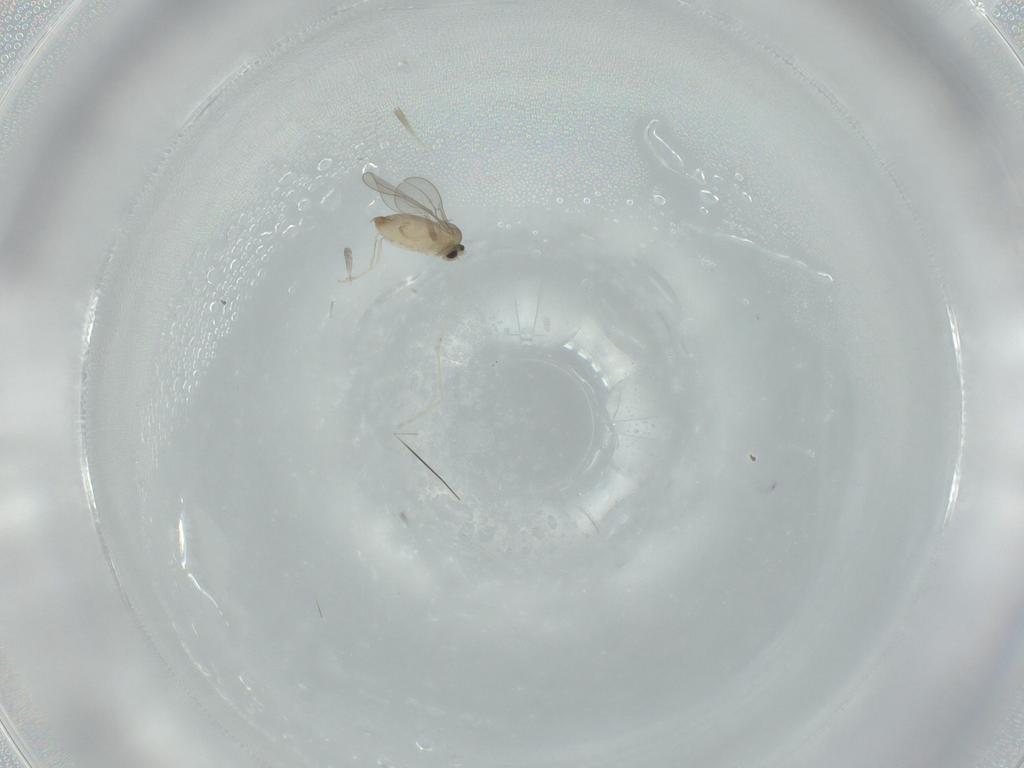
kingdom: Animalia
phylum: Arthropoda
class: Insecta
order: Diptera
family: Cecidomyiidae
